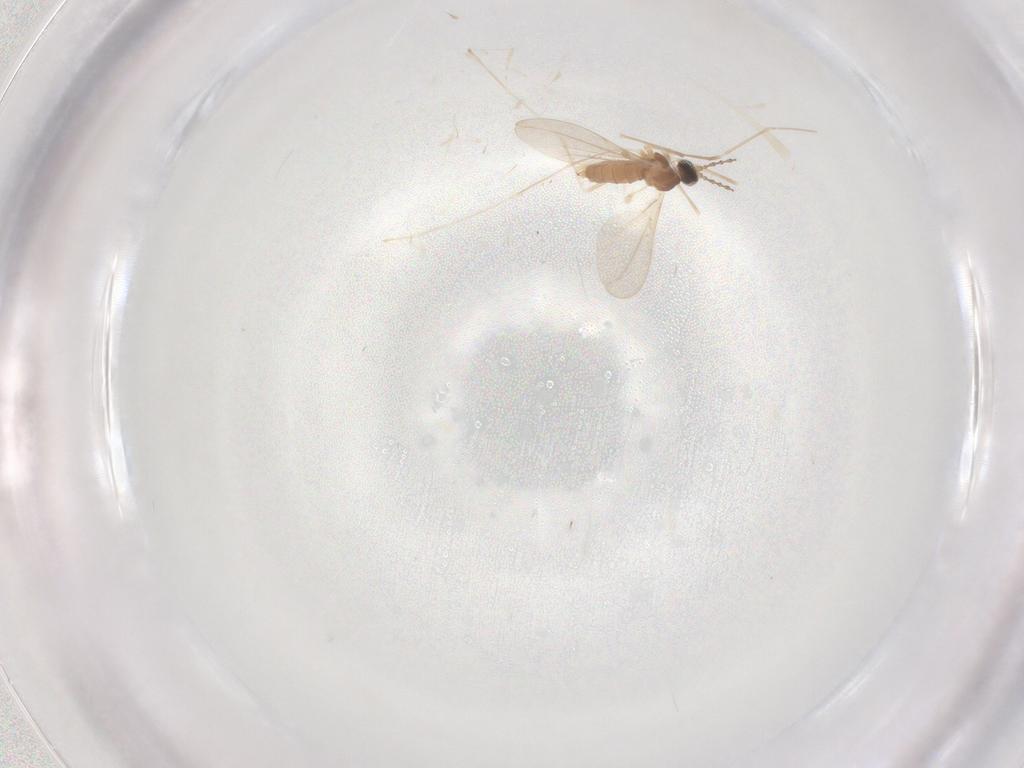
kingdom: Animalia
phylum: Arthropoda
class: Insecta
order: Diptera
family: Cecidomyiidae
